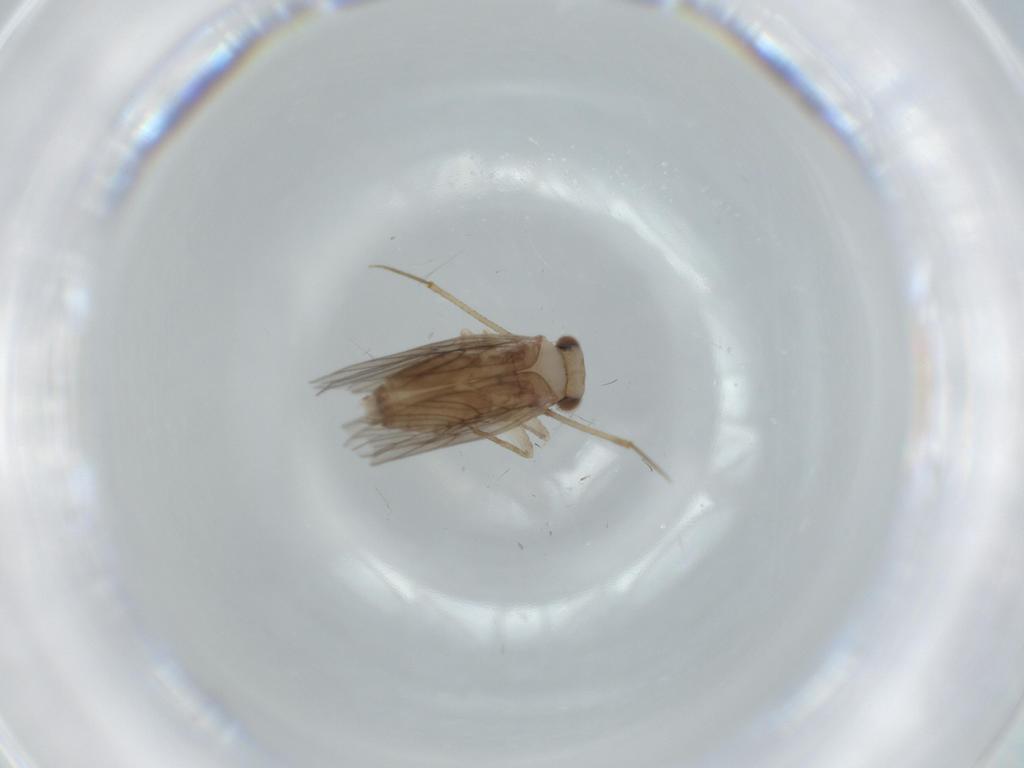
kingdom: Animalia
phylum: Arthropoda
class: Insecta
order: Psocodea
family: Lepidopsocidae
